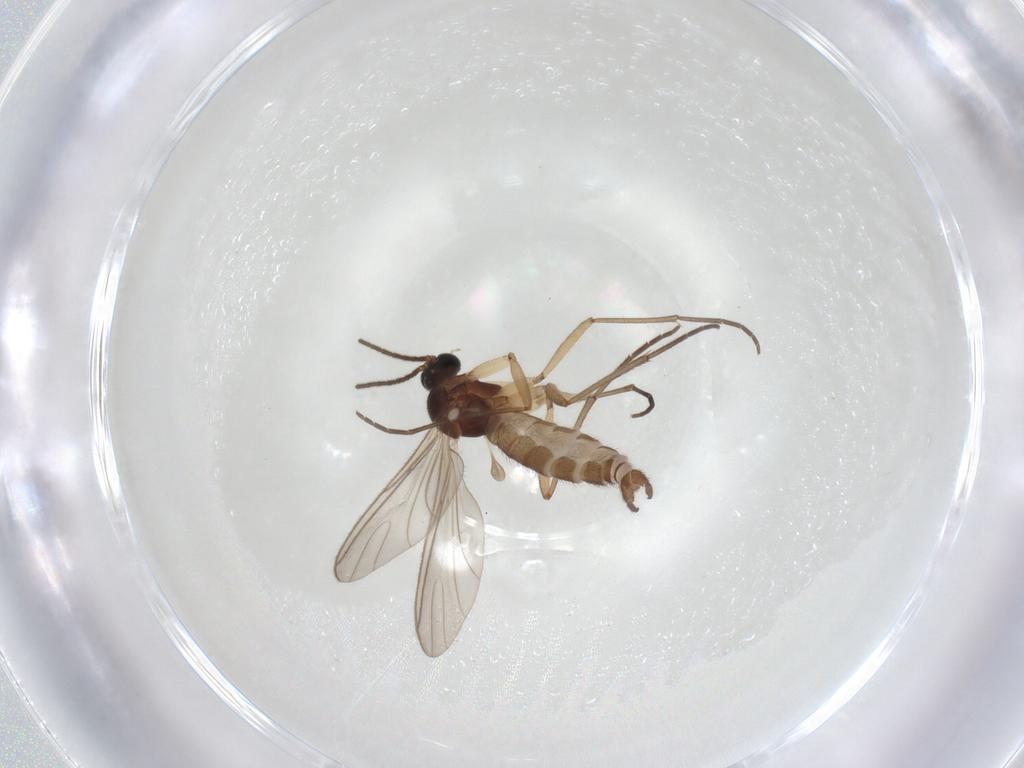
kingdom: Animalia
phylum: Arthropoda
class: Insecta
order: Diptera
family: Sciaridae
